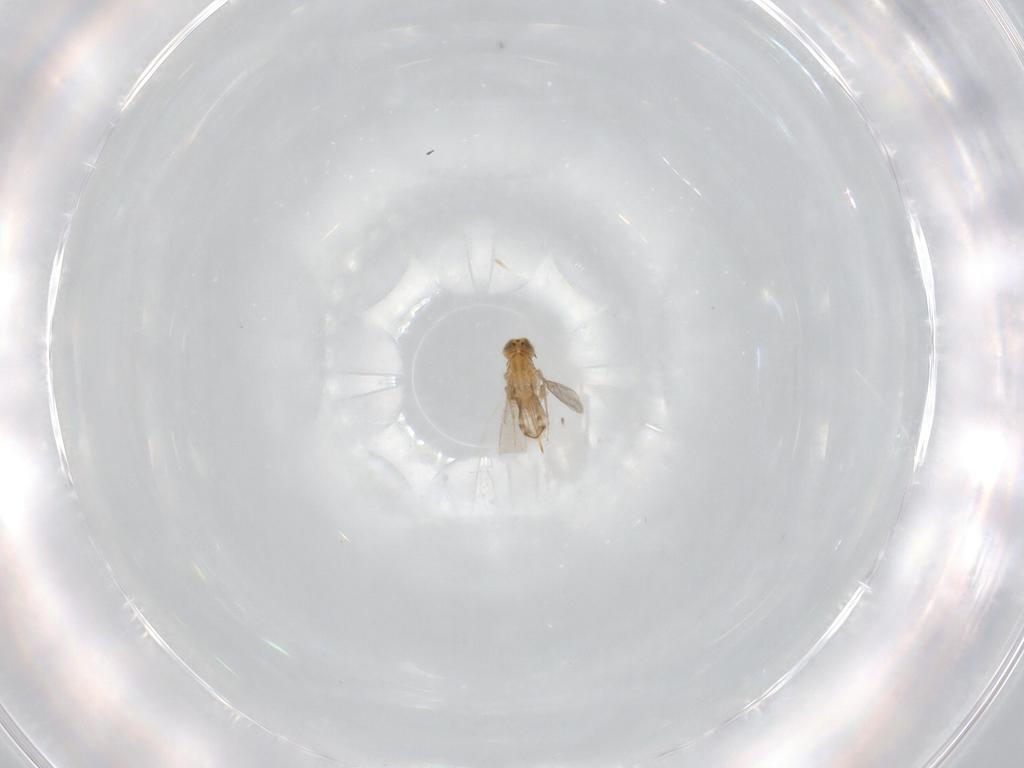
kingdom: Animalia
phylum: Arthropoda
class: Insecta
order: Hymenoptera
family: Aphelinidae
